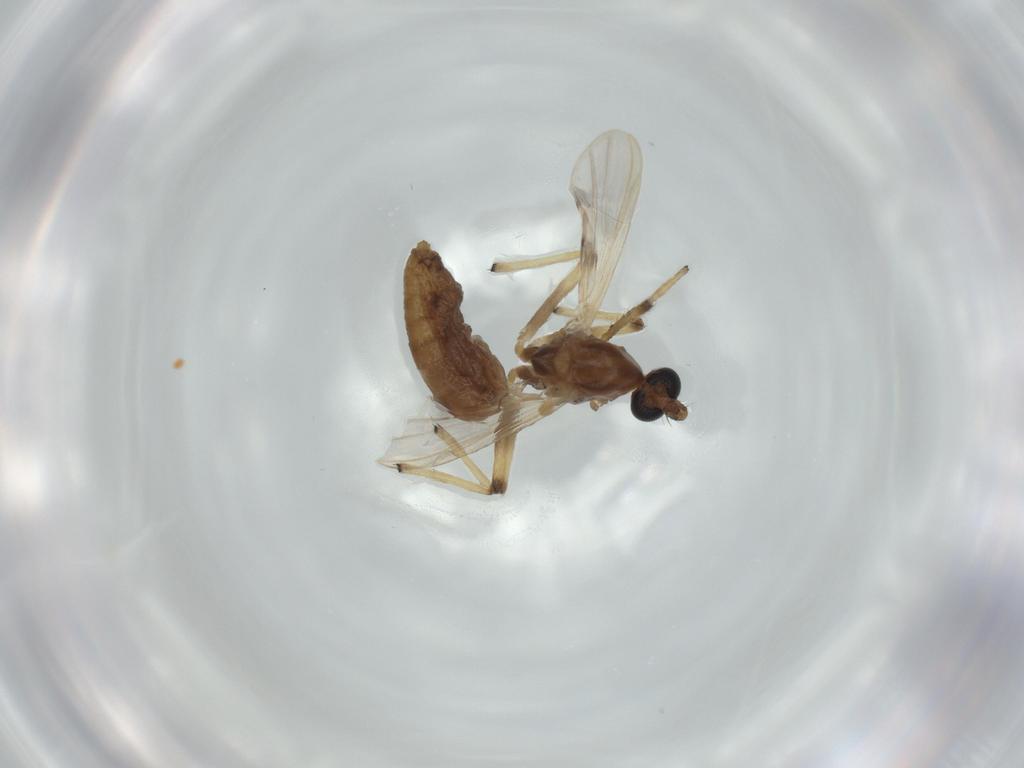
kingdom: Animalia
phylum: Arthropoda
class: Insecta
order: Diptera
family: Chironomidae
